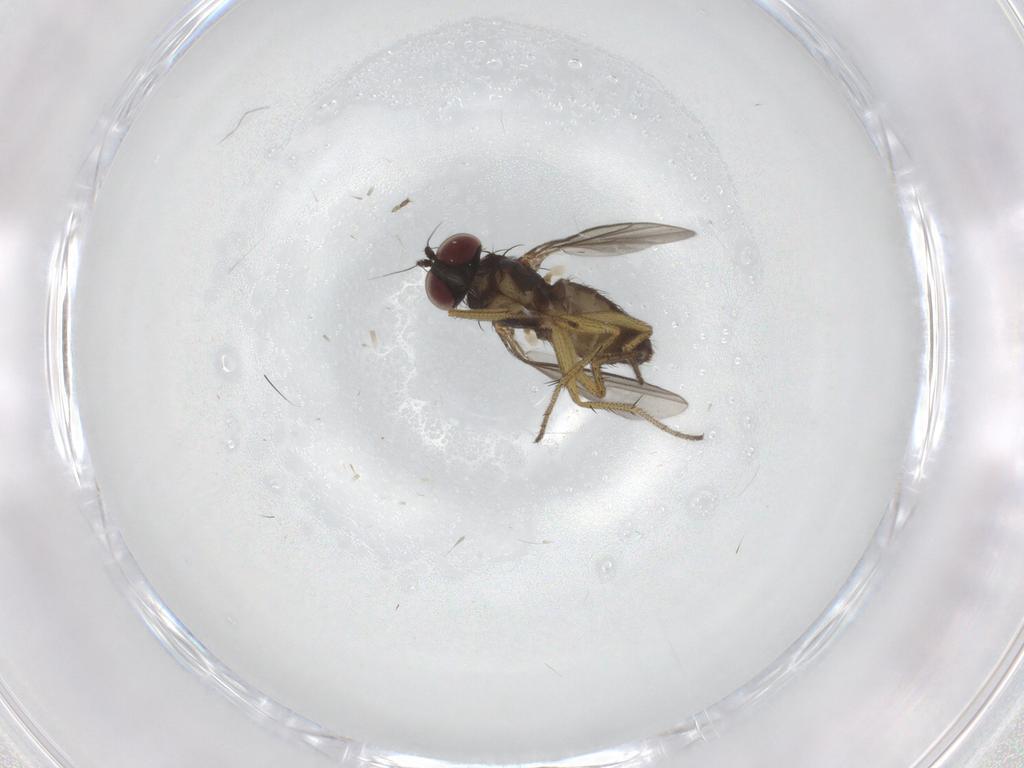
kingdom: Animalia
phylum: Arthropoda
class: Insecta
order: Diptera
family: Dolichopodidae
